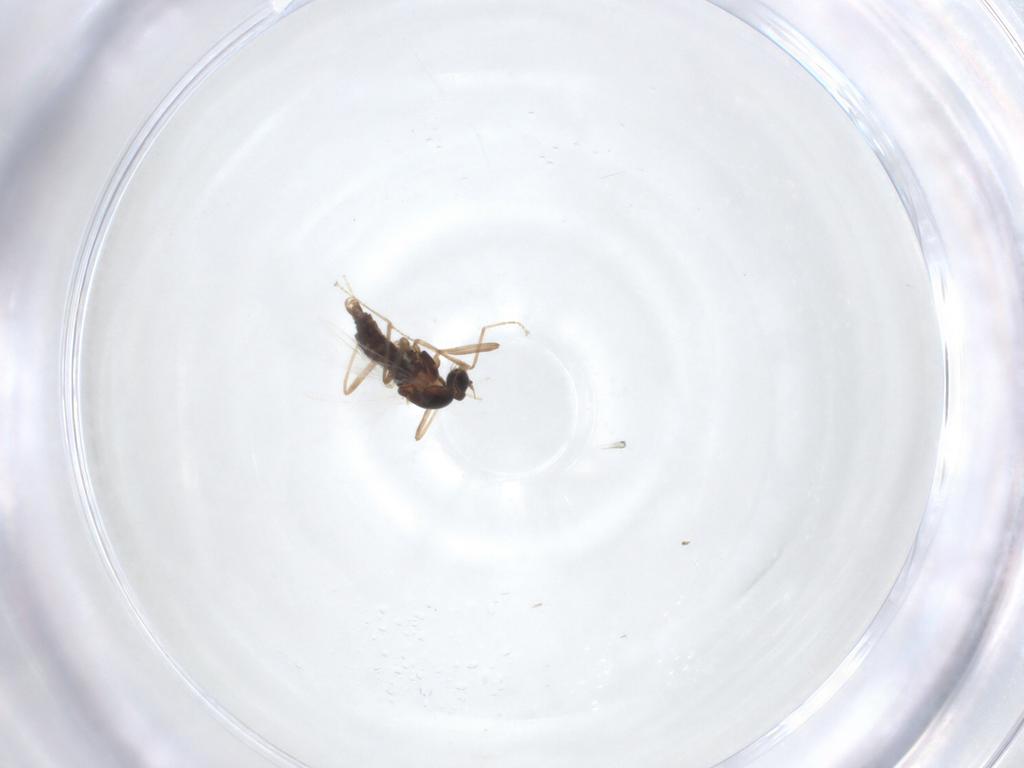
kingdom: Animalia
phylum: Arthropoda
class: Insecta
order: Diptera
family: Cecidomyiidae
